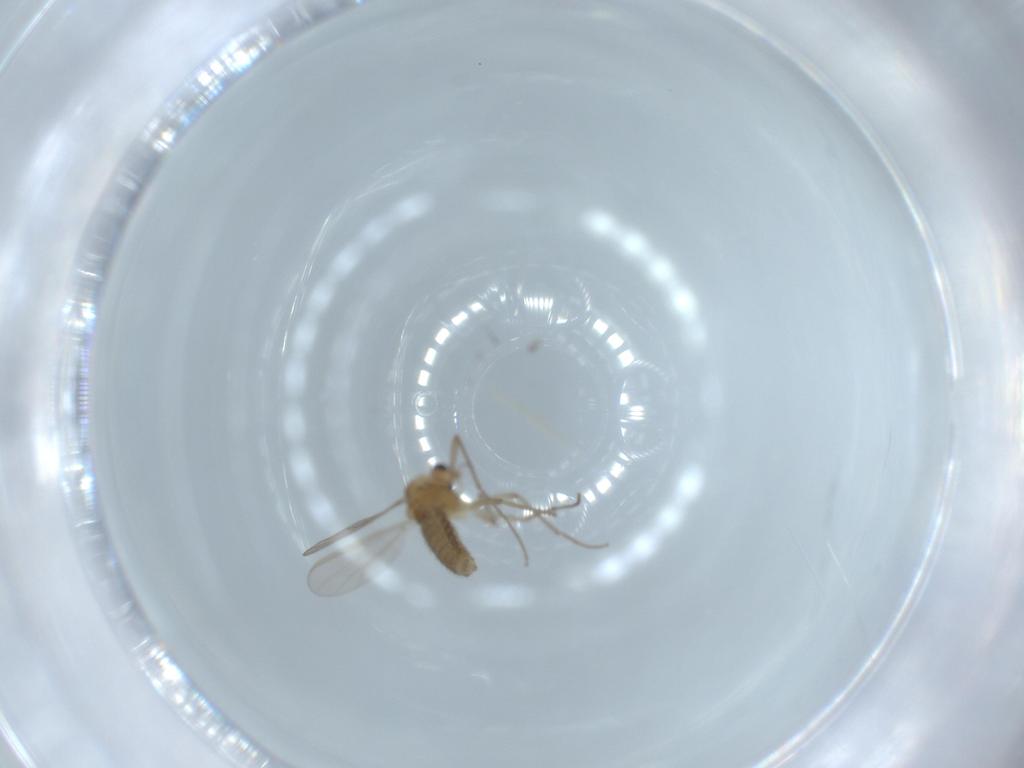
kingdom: Animalia
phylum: Arthropoda
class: Insecta
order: Diptera
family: Chironomidae
